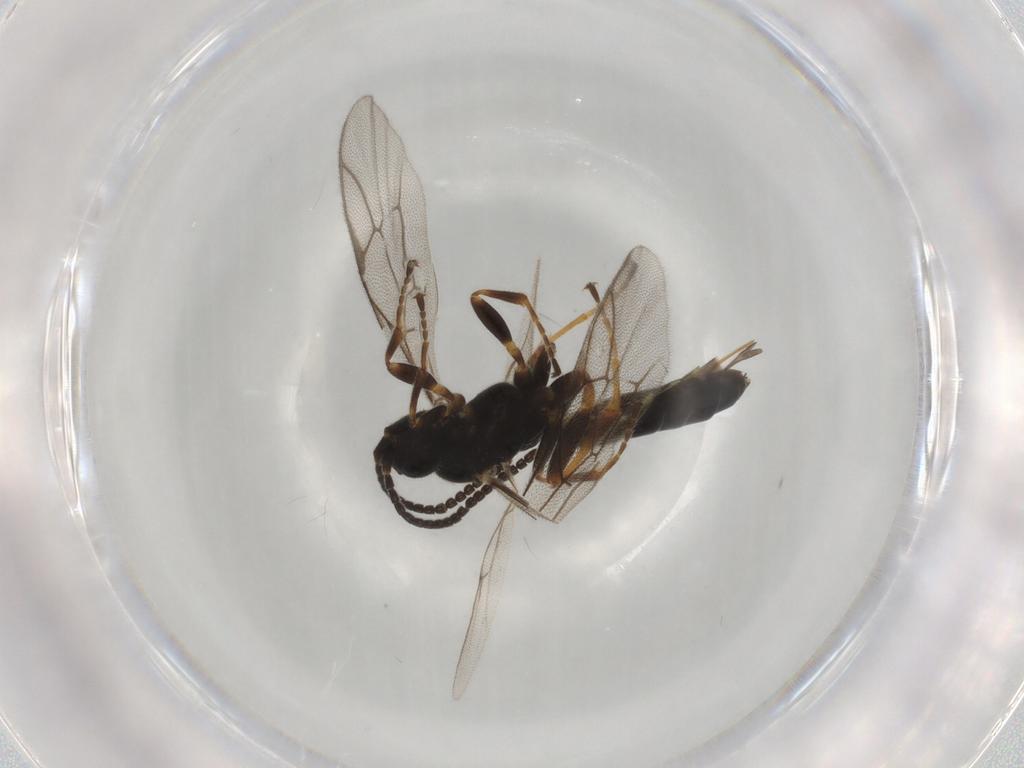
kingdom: Animalia
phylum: Arthropoda
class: Insecta
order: Hymenoptera
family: Ichneumonidae
